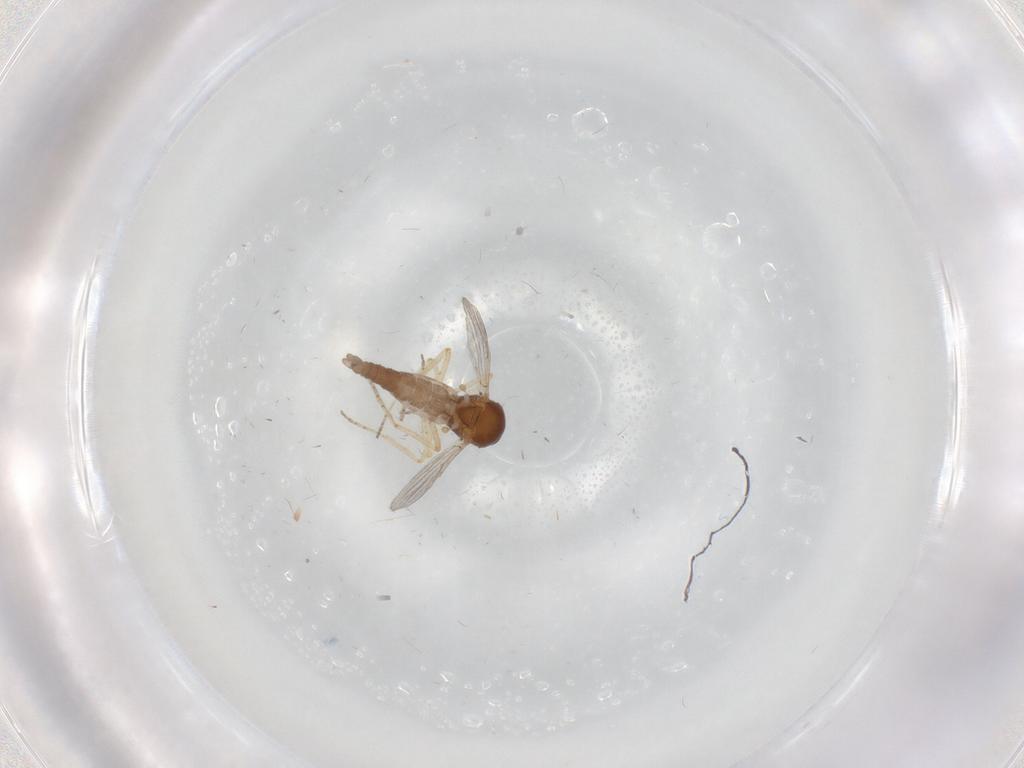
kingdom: Animalia
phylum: Arthropoda
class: Insecta
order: Diptera
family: Ceratopogonidae
